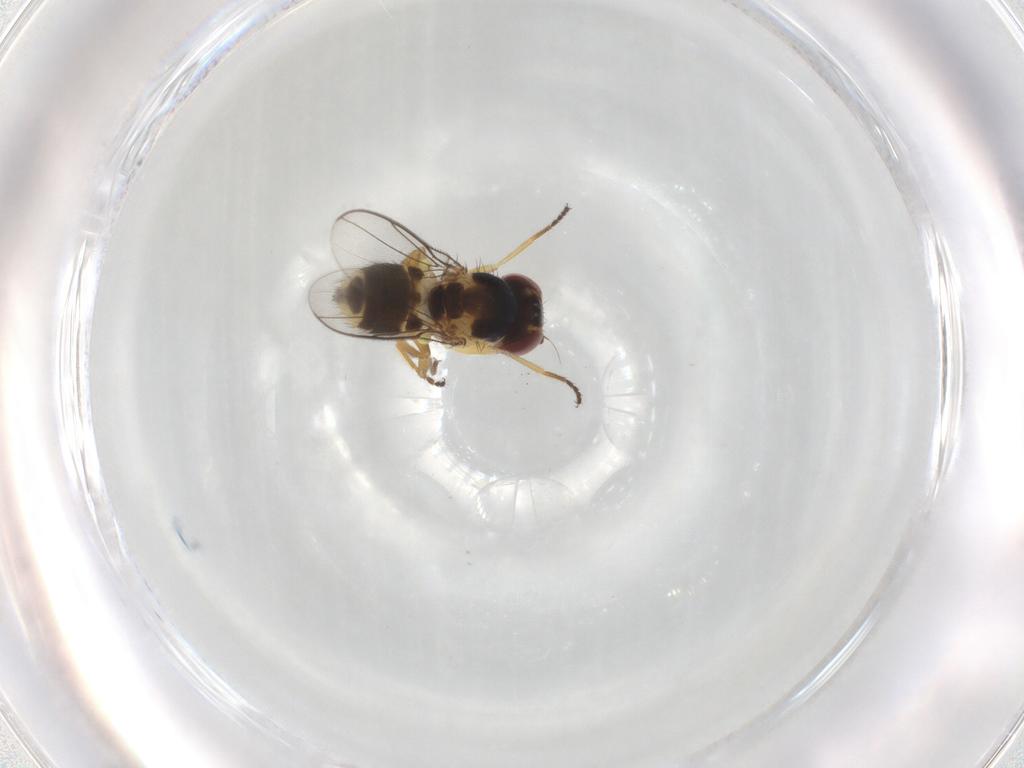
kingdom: Animalia
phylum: Arthropoda
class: Insecta
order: Diptera
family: Chloropidae
